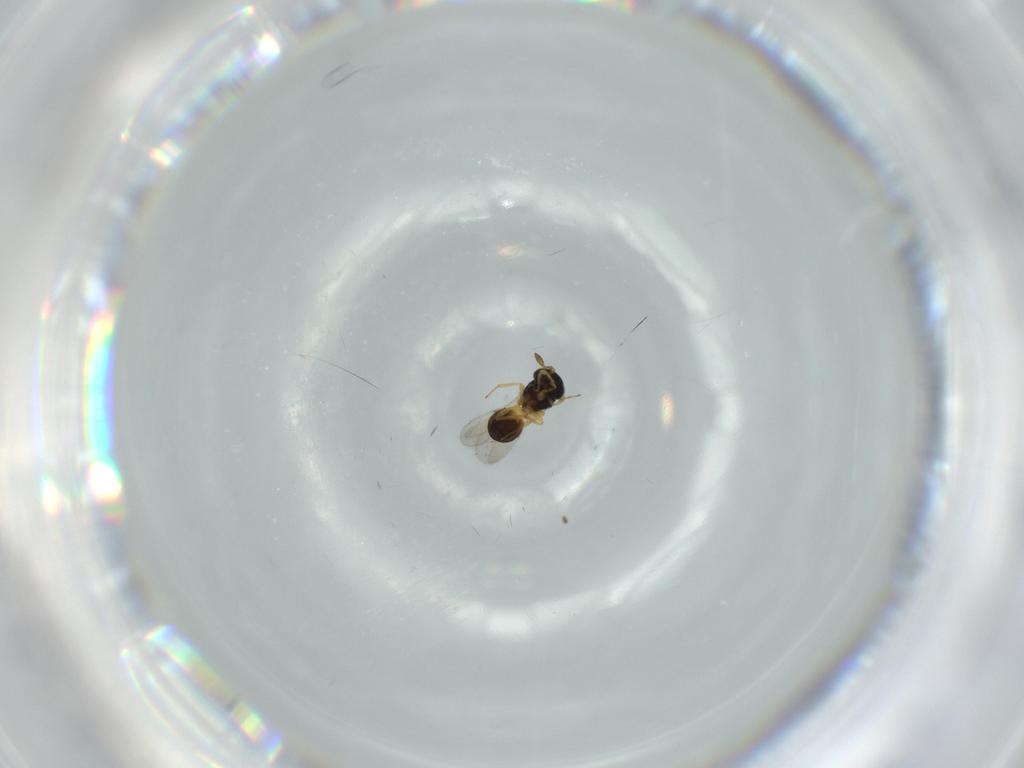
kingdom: Animalia
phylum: Arthropoda
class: Insecta
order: Hymenoptera
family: Scelionidae
